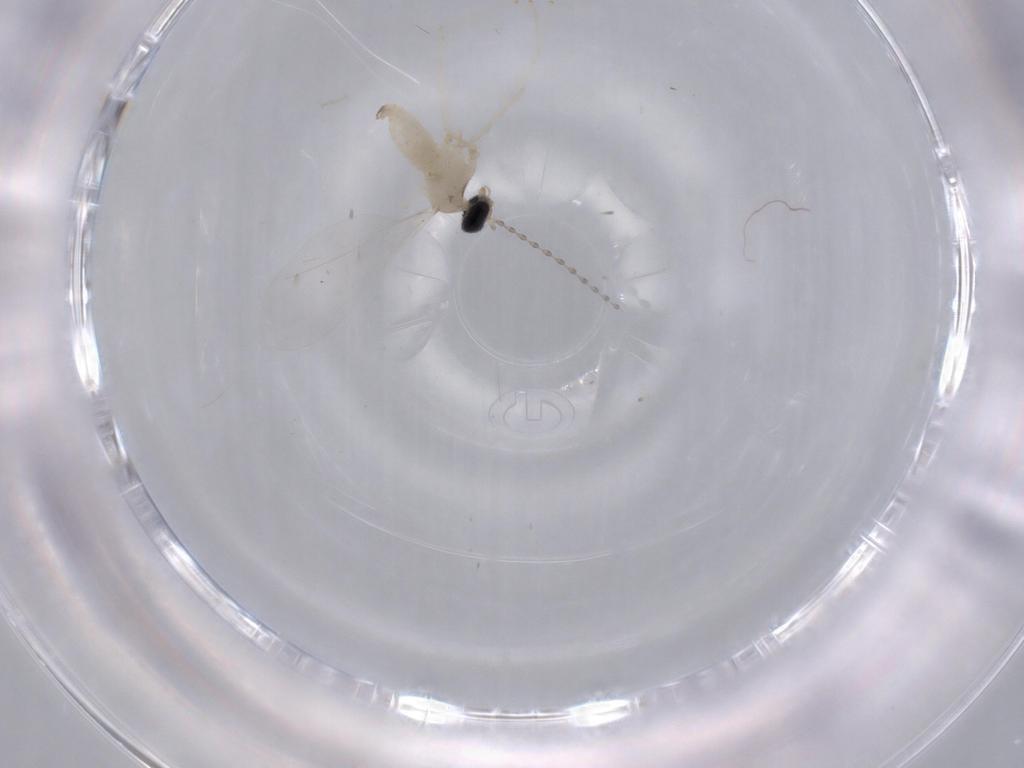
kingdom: Animalia
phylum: Arthropoda
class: Insecta
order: Diptera
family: Cecidomyiidae
